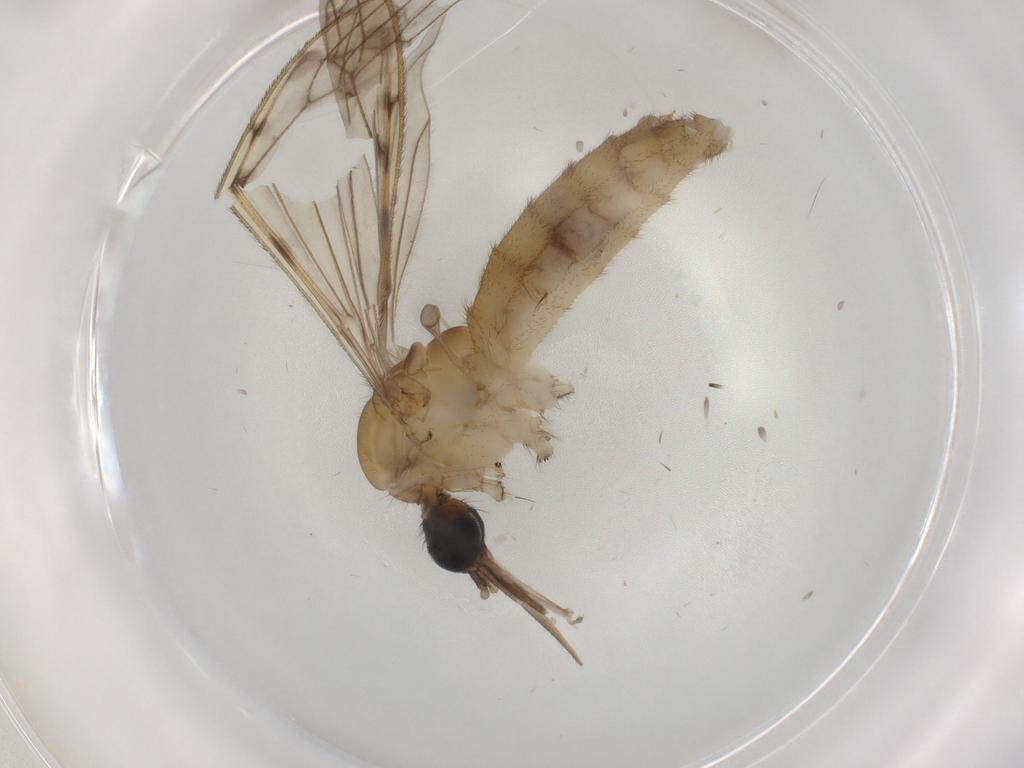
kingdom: Animalia
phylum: Arthropoda
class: Insecta
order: Diptera
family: Cecidomyiidae
